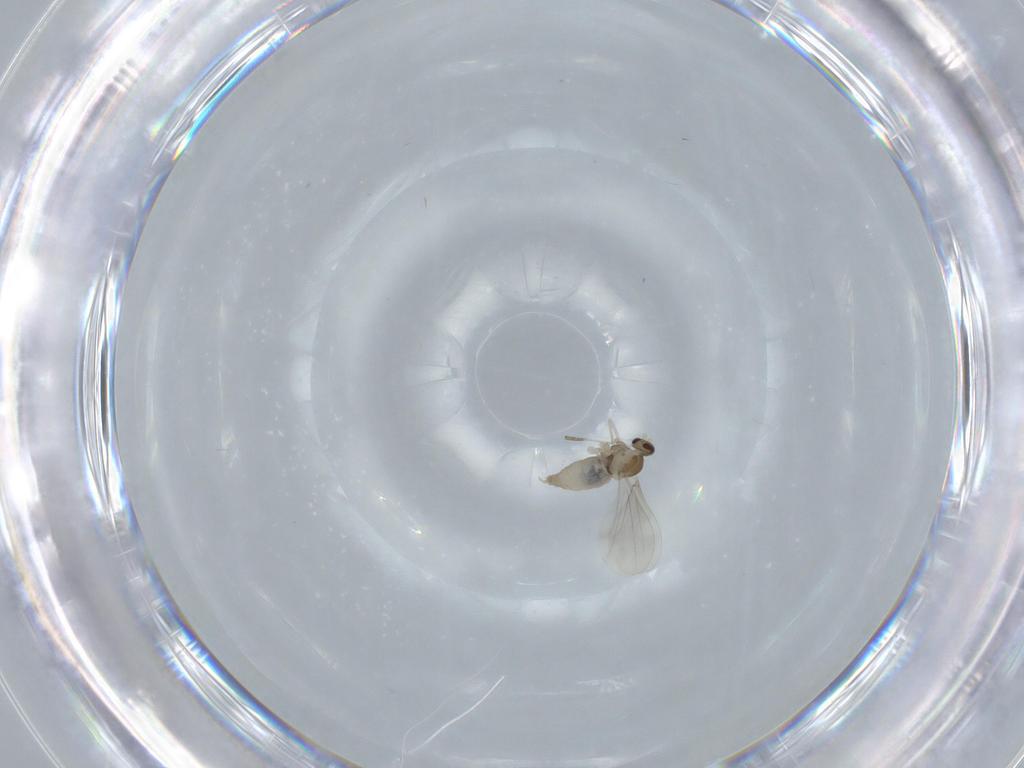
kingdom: Animalia
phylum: Arthropoda
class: Insecta
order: Diptera
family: Cecidomyiidae
